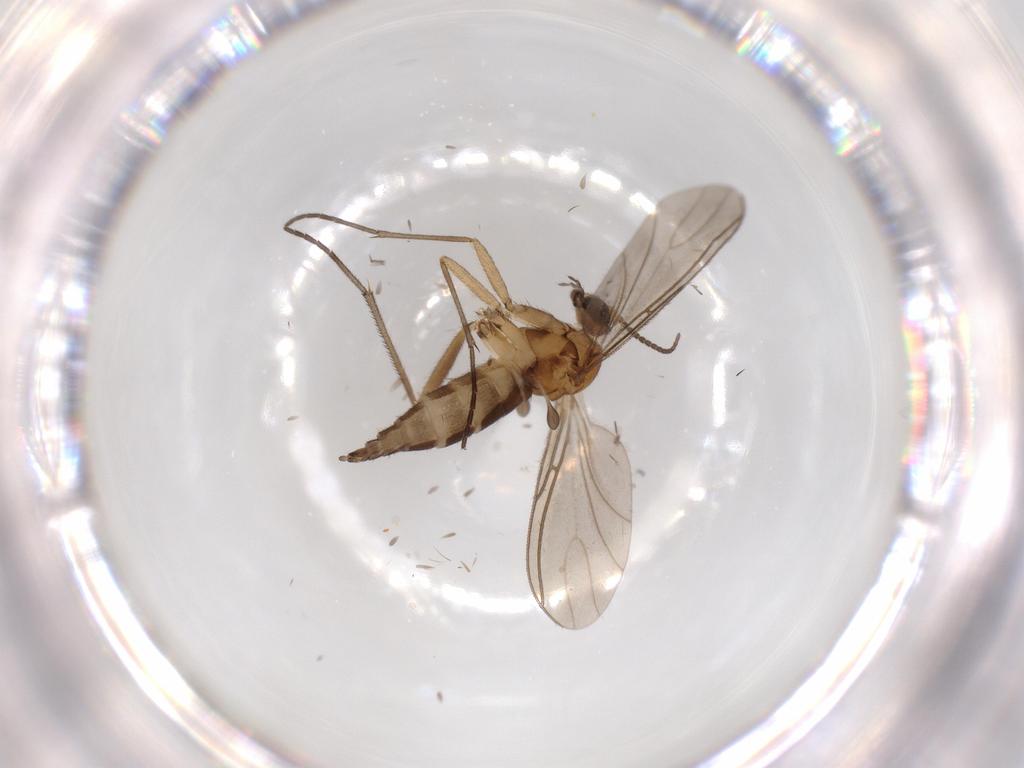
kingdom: Animalia
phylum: Arthropoda
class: Insecta
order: Diptera
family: Sciaridae
